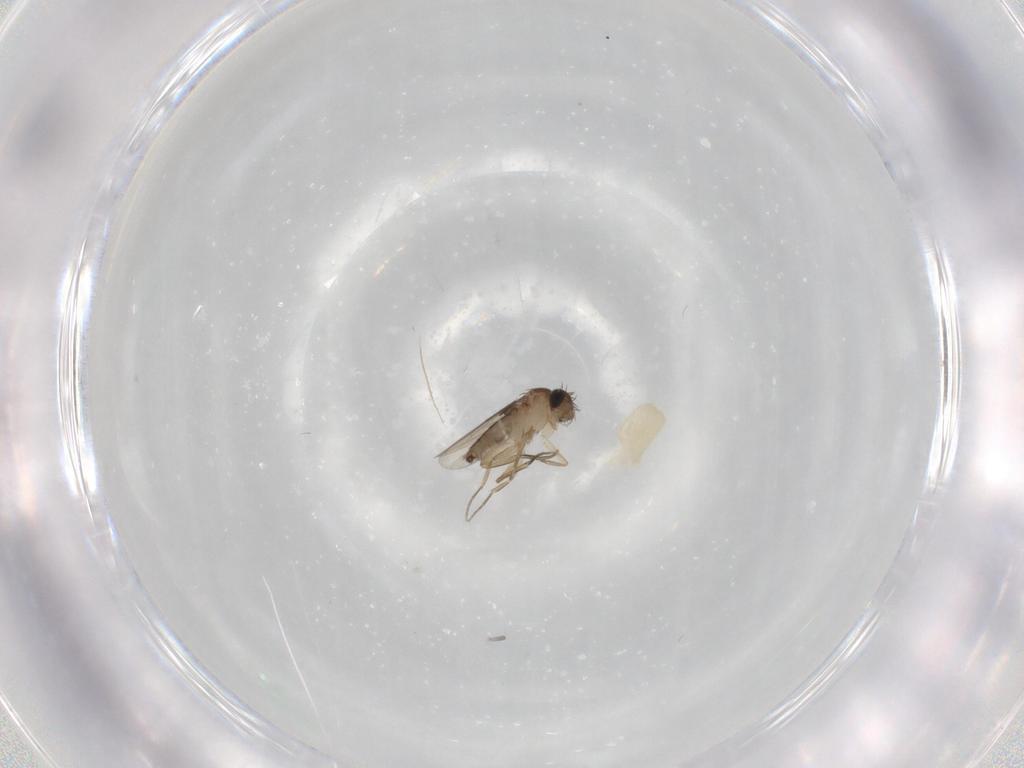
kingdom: Animalia
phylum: Arthropoda
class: Insecta
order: Diptera
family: Phoridae
